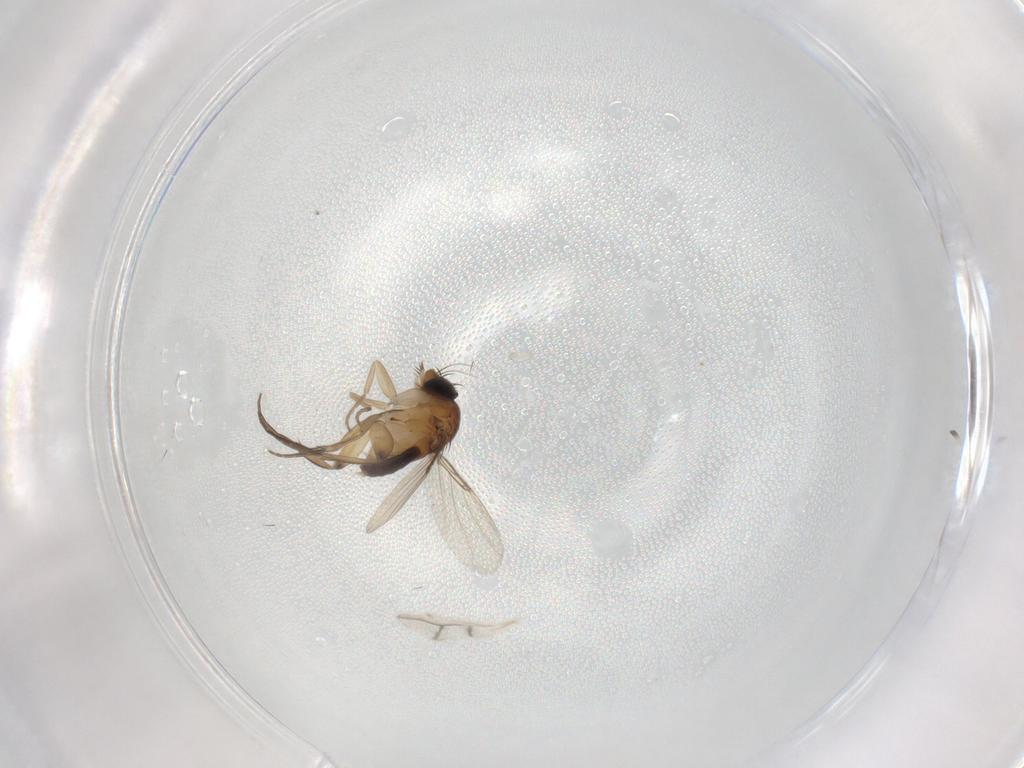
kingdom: Animalia
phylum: Arthropoda
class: Insecta
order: Diptera
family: Phoridae
